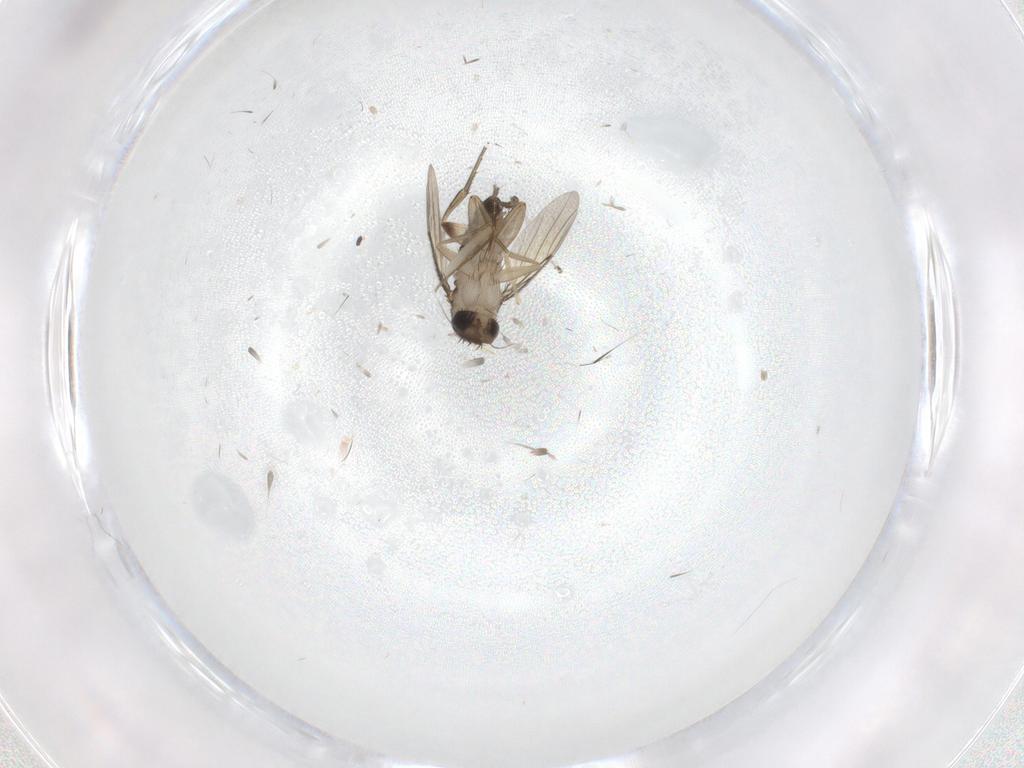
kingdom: Animalia
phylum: Arthropoda
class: Insecta
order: Diptera
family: Phoridae
